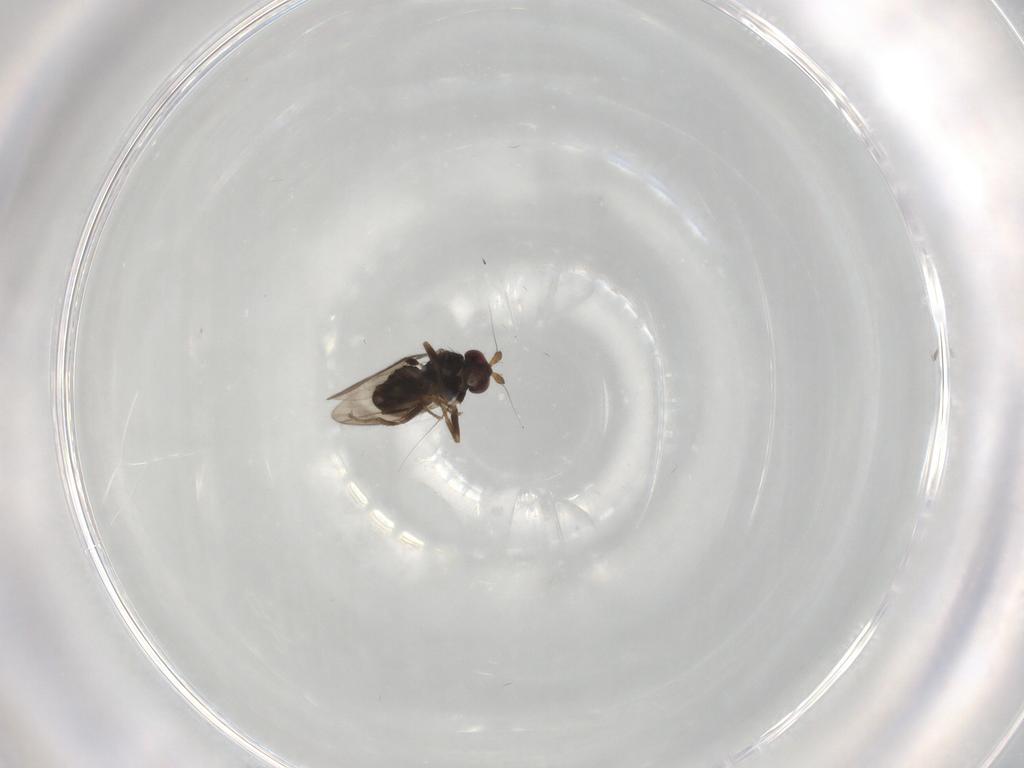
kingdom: Animalia
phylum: Arthropoda
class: Insecta
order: Diptera
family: Sphaeroceridae
